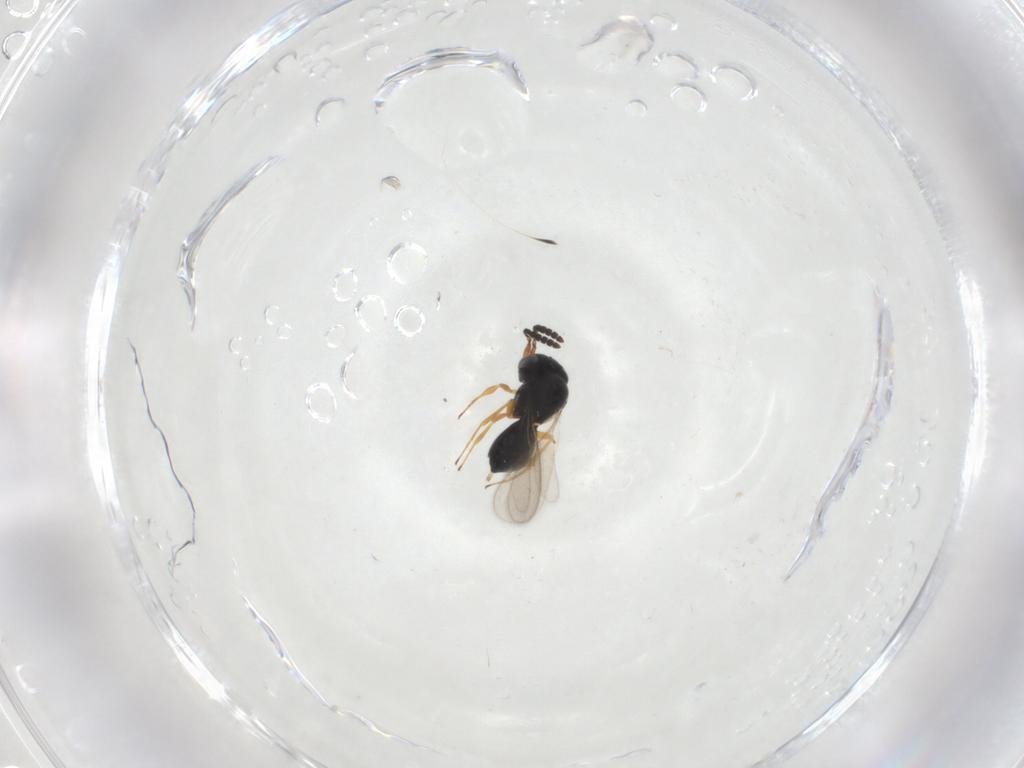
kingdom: Animalia
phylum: Arthropoda
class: Insecta
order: Hymenoptera
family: Scelionidae
